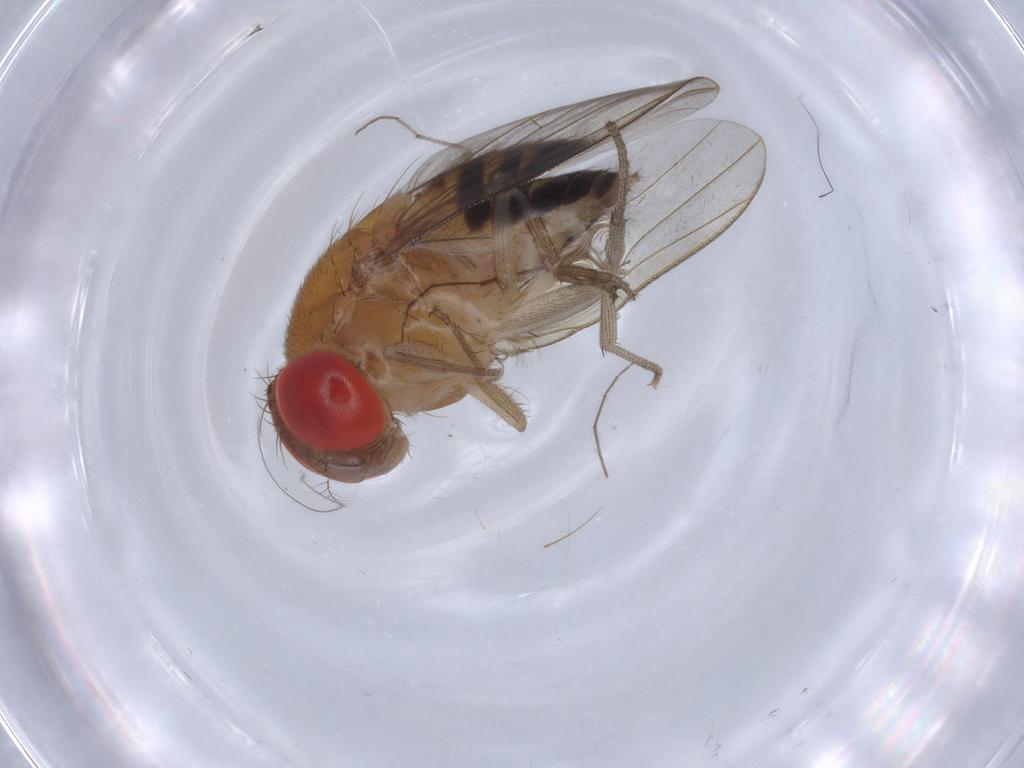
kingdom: Animalia
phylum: Arthropoda
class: Insecta
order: Diptera
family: Drosophilidae
